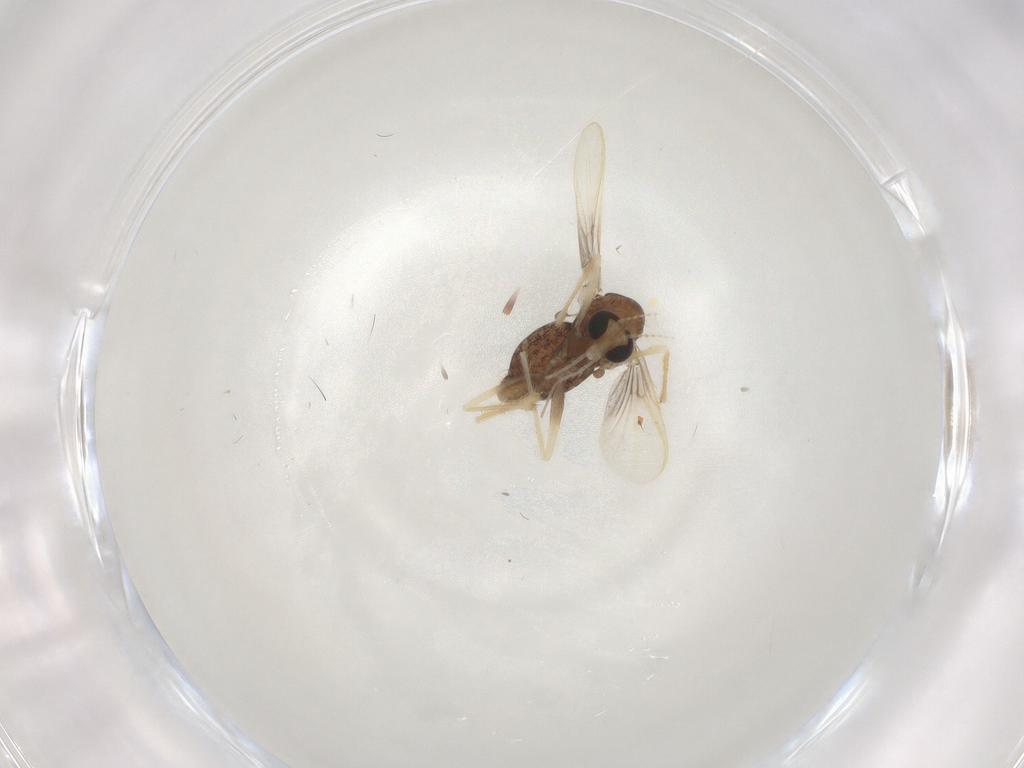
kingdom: Animalia
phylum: Arthropoda
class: Insecta
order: Diptera
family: Chironomidae
